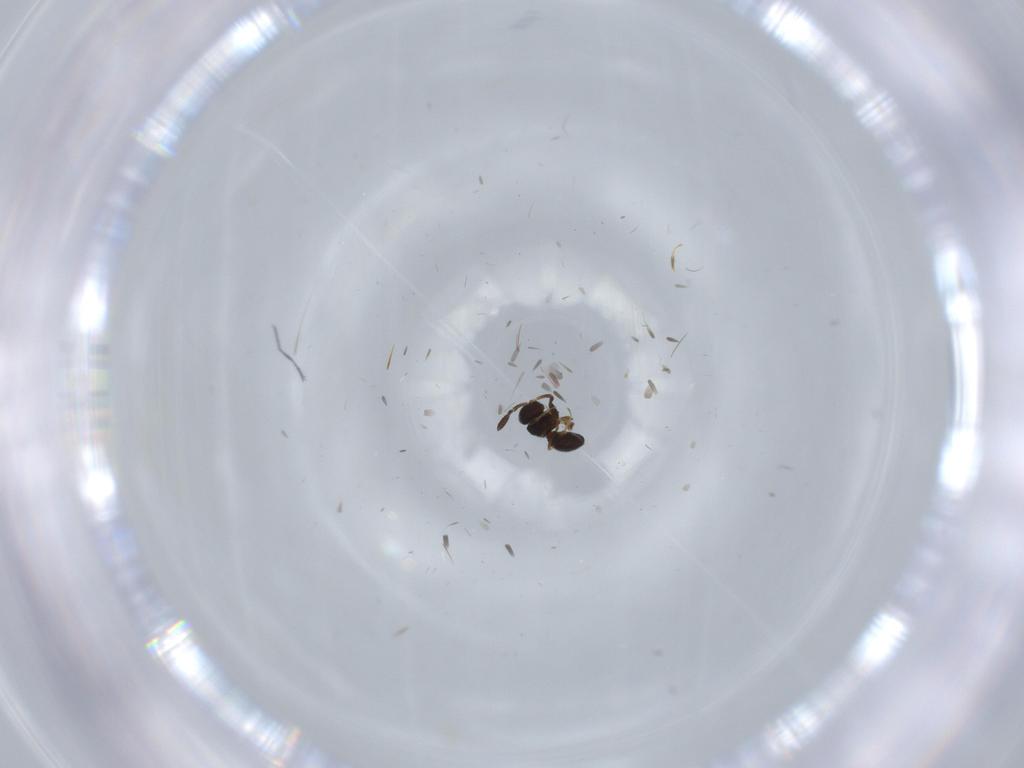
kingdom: Animalia
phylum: Arthropoda
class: Insecta
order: Hymenoptera
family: Scelionidae
